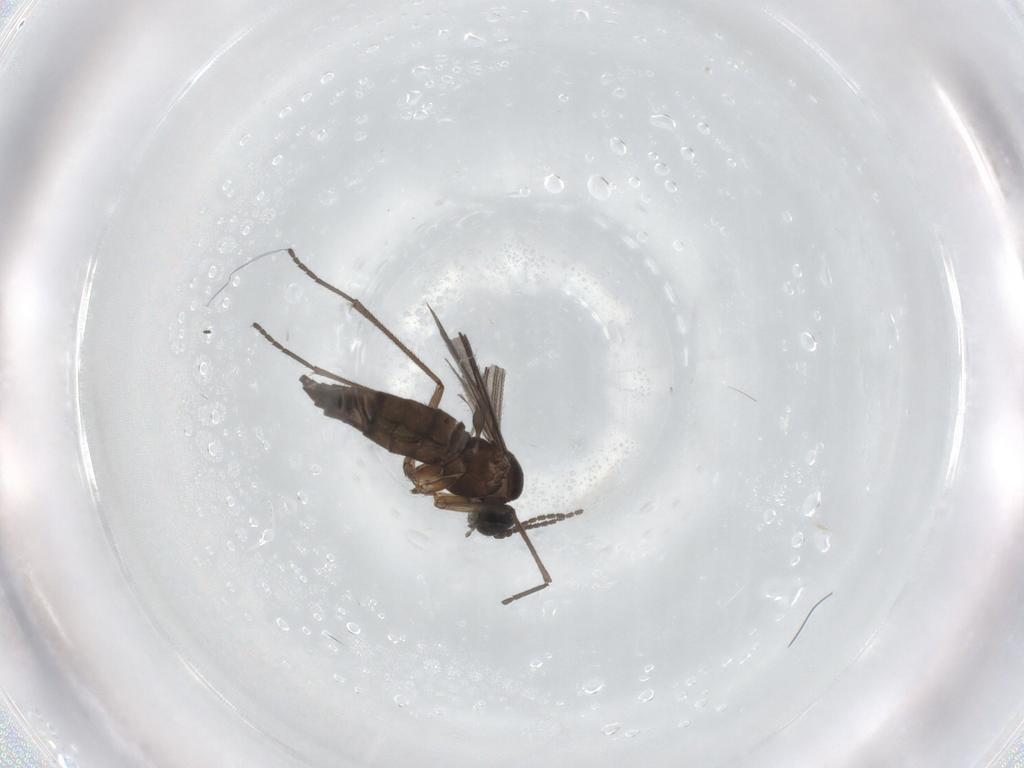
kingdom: Animalia
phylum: Arthropoda
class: Insecta
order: Diptera
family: Sciaridae
